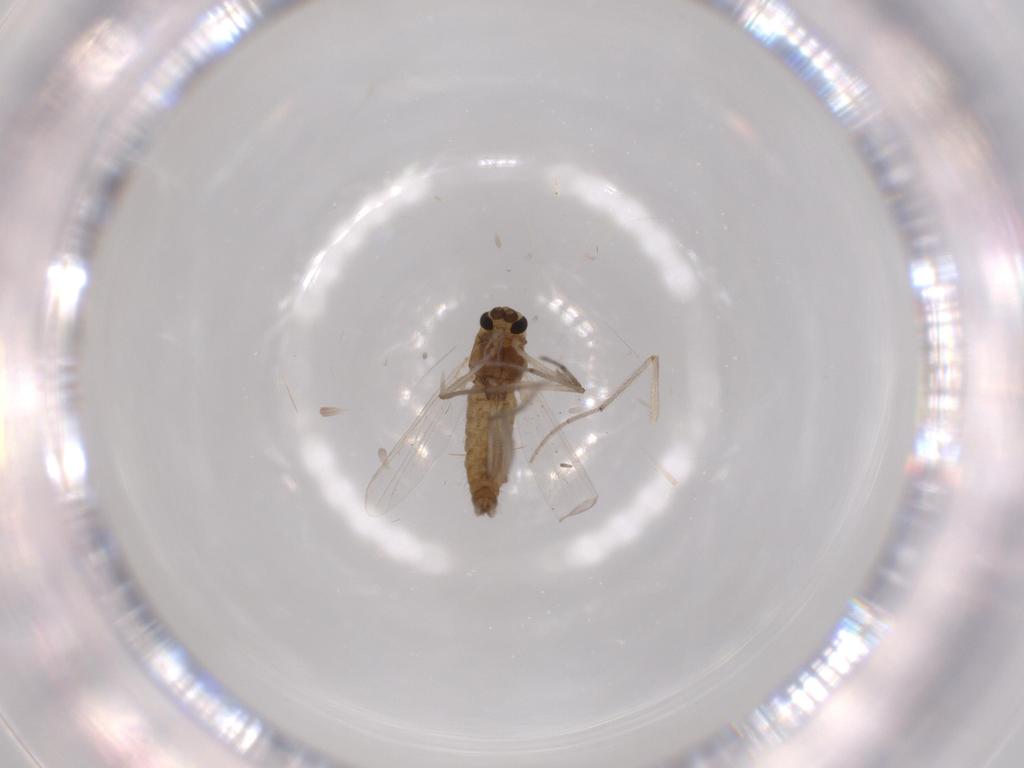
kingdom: Animalia
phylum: Arthropoda
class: Insecta
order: Diptera
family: Chironomidae
